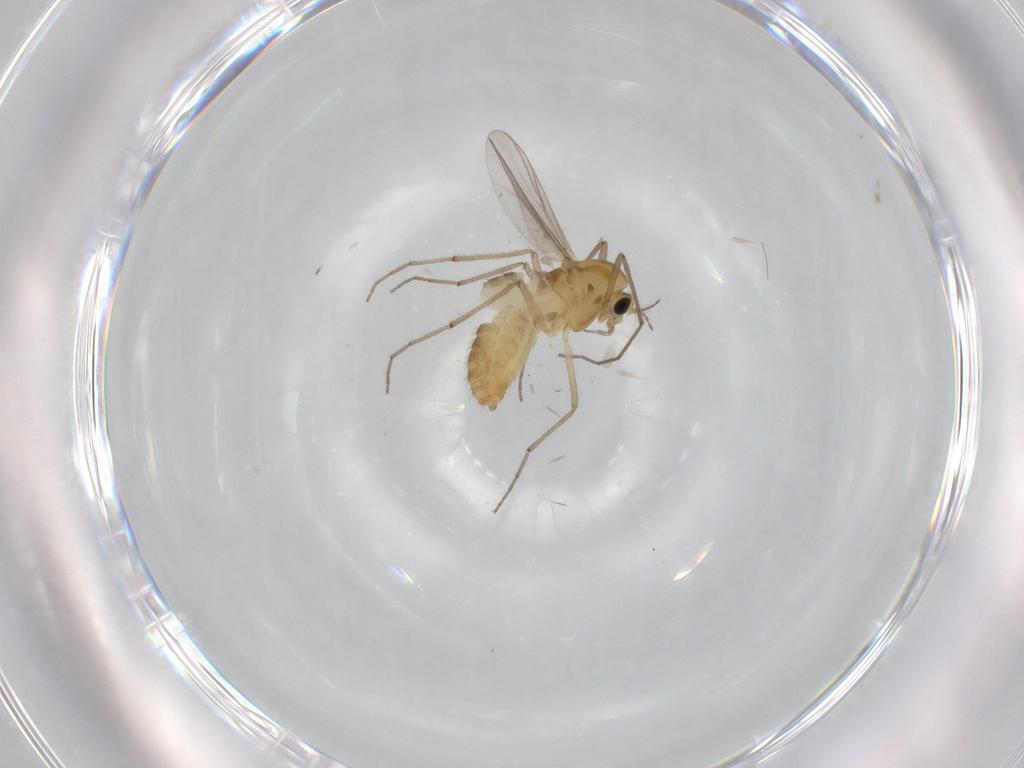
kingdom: Animalia
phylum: Arthropoda
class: Insecta
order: Diptera
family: Chironomidae
